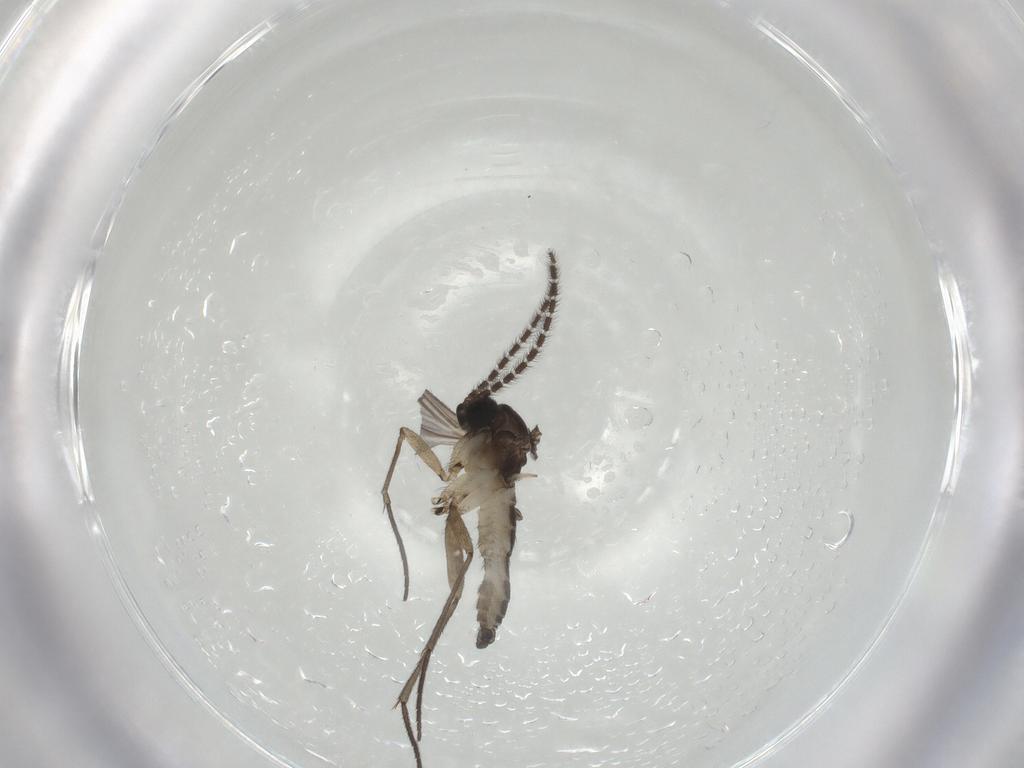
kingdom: Animalia
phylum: Arthropoda
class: Insecta
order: Diptera
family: Sciaridae
